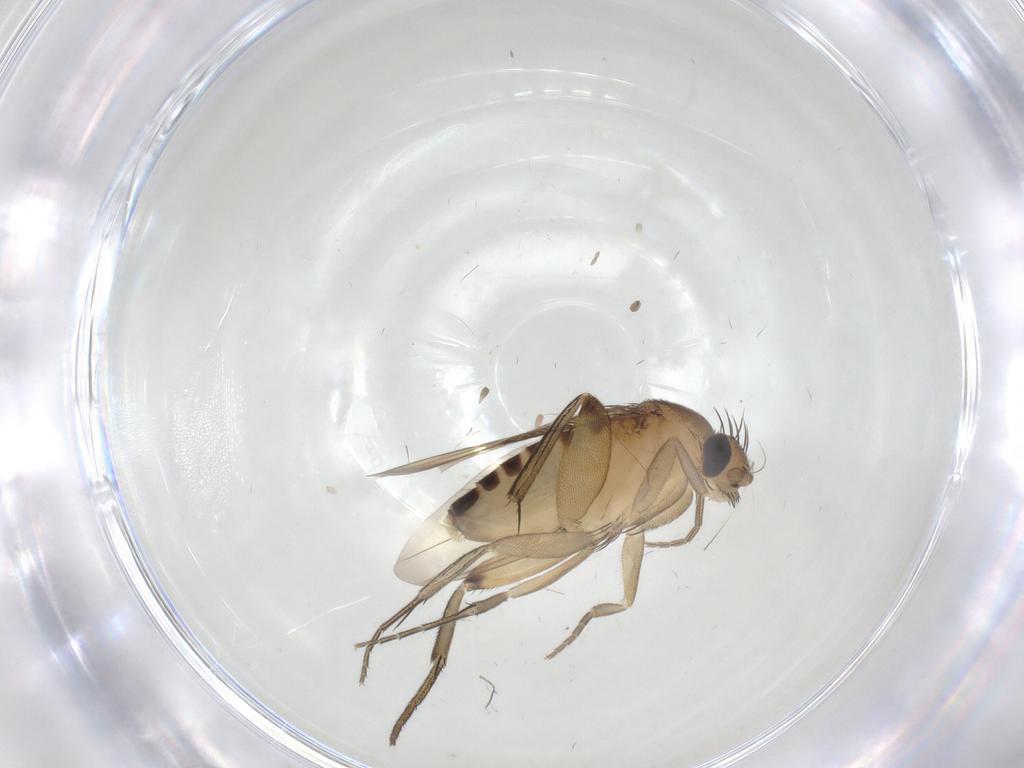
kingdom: Animalia
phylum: Arthropoda
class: Insecta
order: Diptera
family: Phoridae
